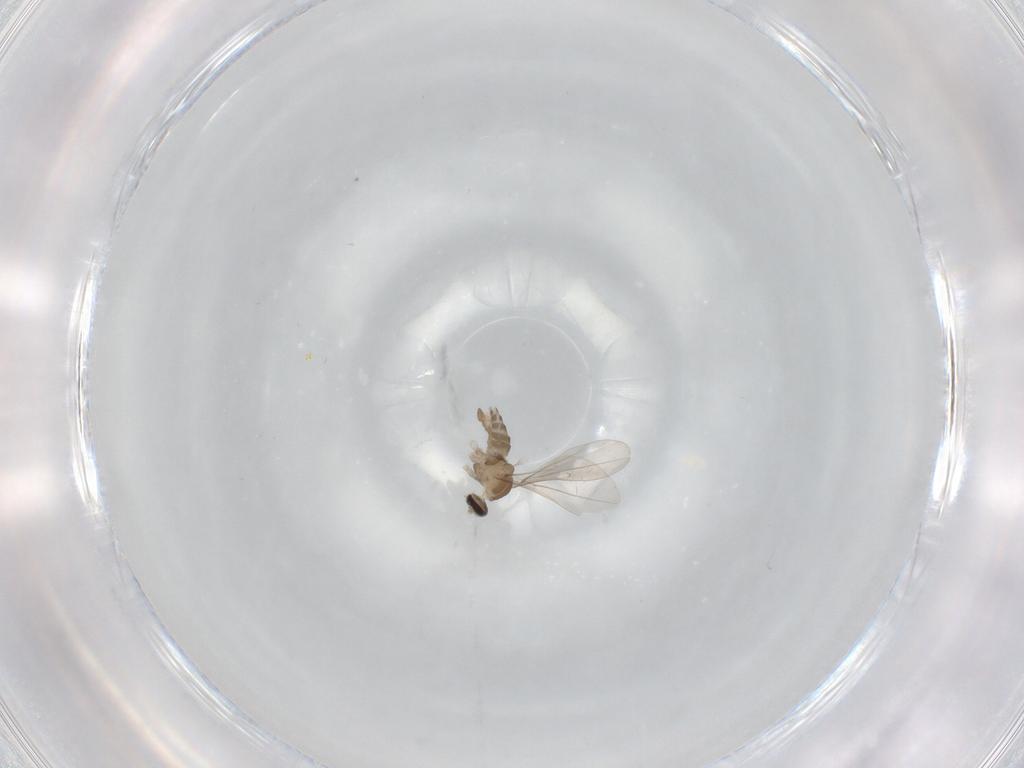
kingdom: Animalia
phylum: Arthropoda
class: Insecta
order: Diptera
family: Cecidomyiidae
